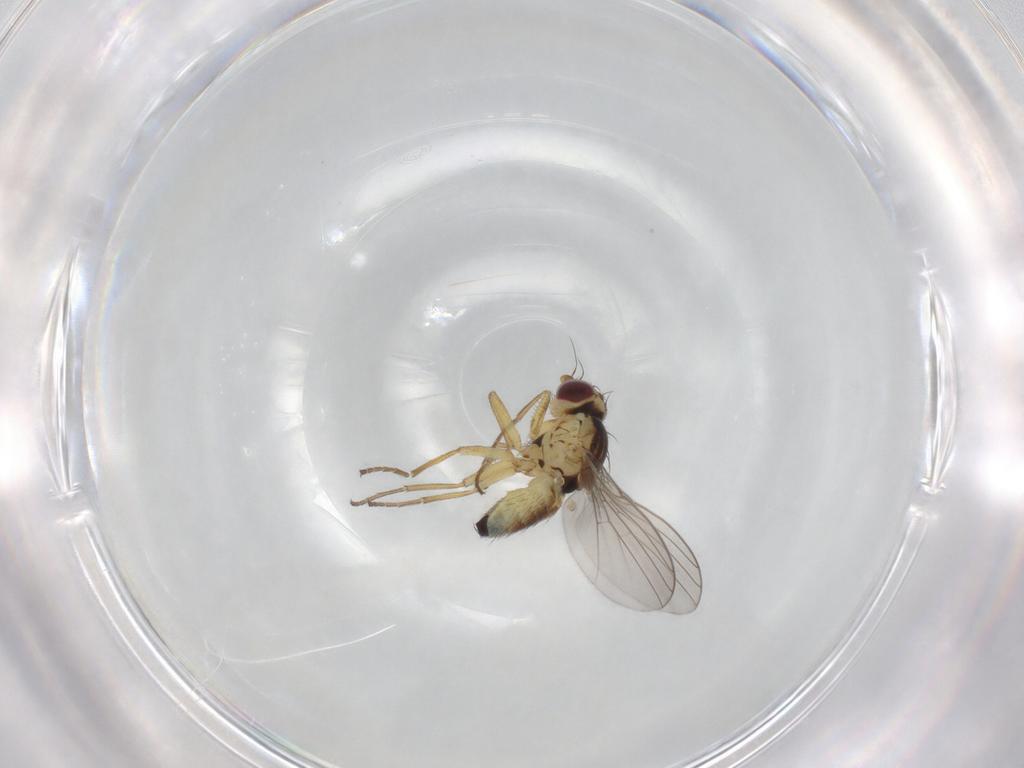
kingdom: Animalia
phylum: Arthropoda
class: Insecta
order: Diptera
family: Agromyzidae
